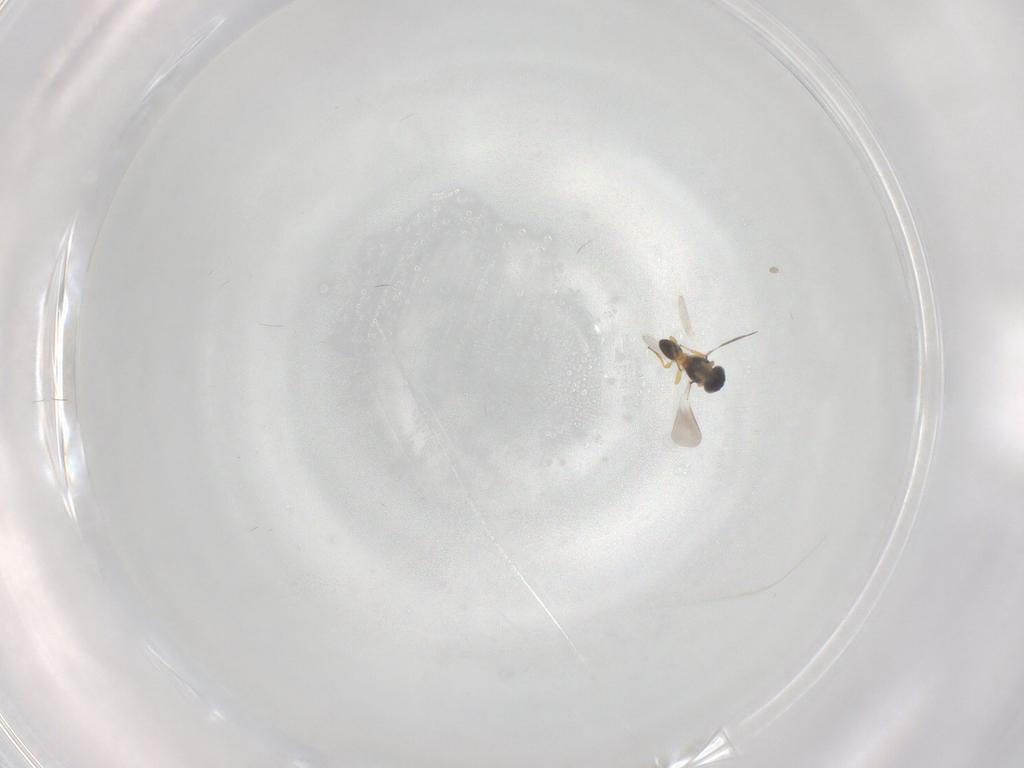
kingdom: Animalia
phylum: Arthropoda
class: Insecta
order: Hymenoptera
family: Platygastridae
